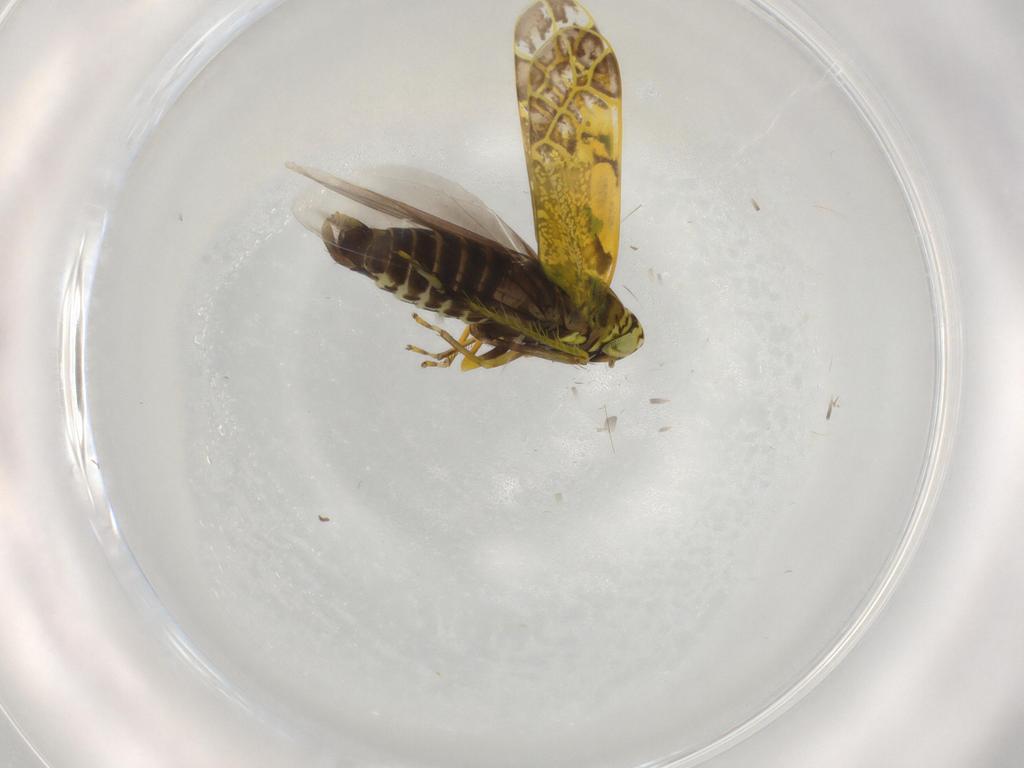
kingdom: Animalia
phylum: Arthropoda
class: Insecta
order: Hemiptera
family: Cicadellidae
